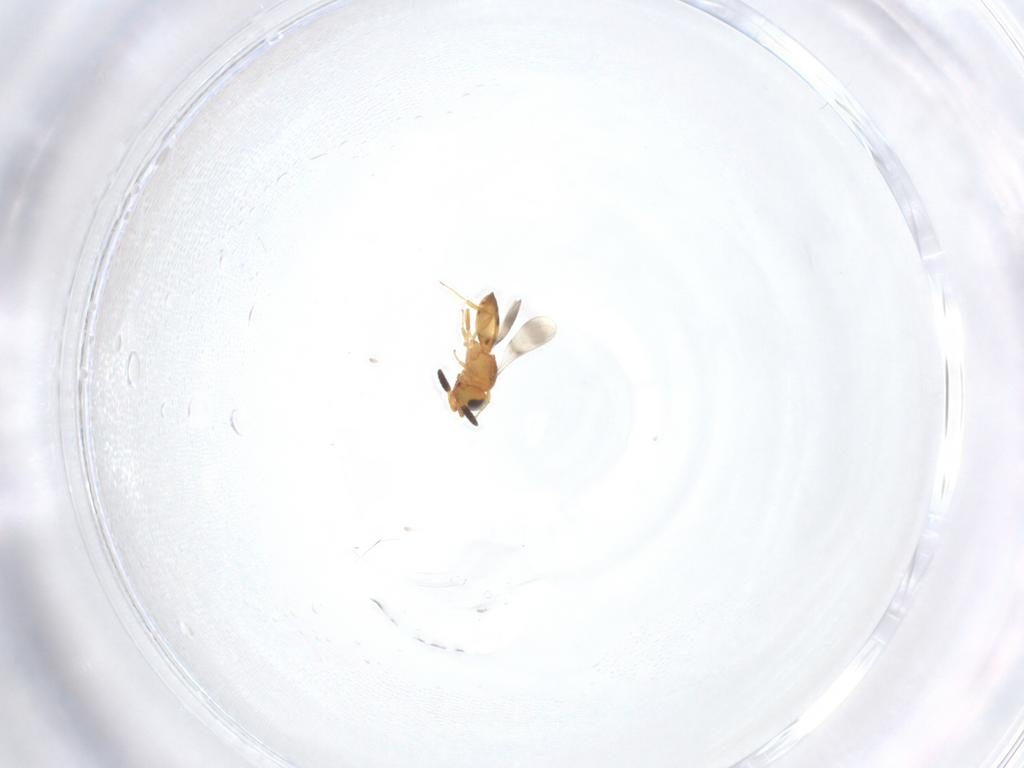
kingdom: Animalia
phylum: Arthropoda
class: Insecta
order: Hymenoptera
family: Scelionidae
